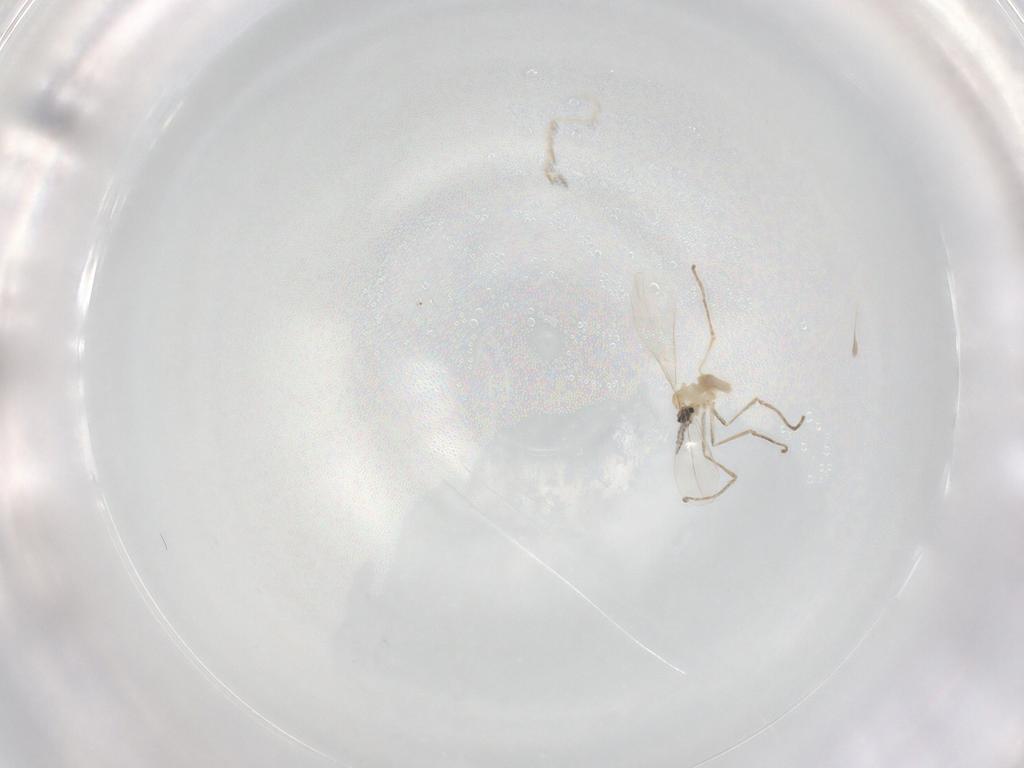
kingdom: Animalia
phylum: Arthropoda
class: Insecta
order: Diptera
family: Cecidomyiidae
